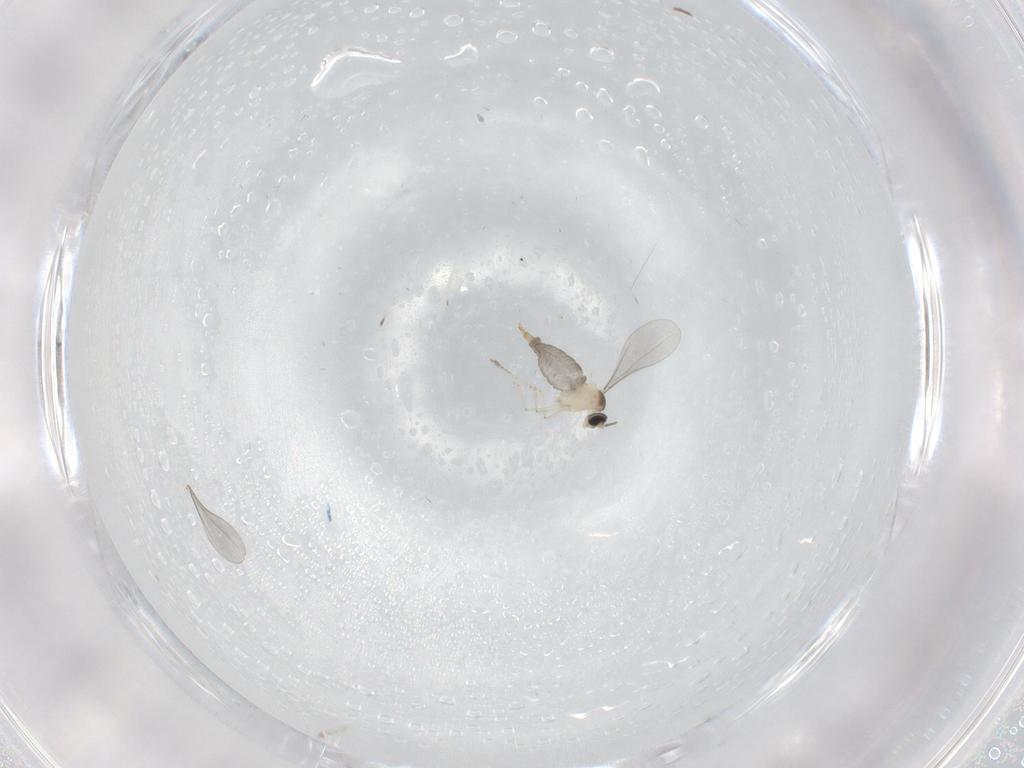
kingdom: Animalia
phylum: Arthropoda
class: Insecta
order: Diptera
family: Cecidomyiidae
